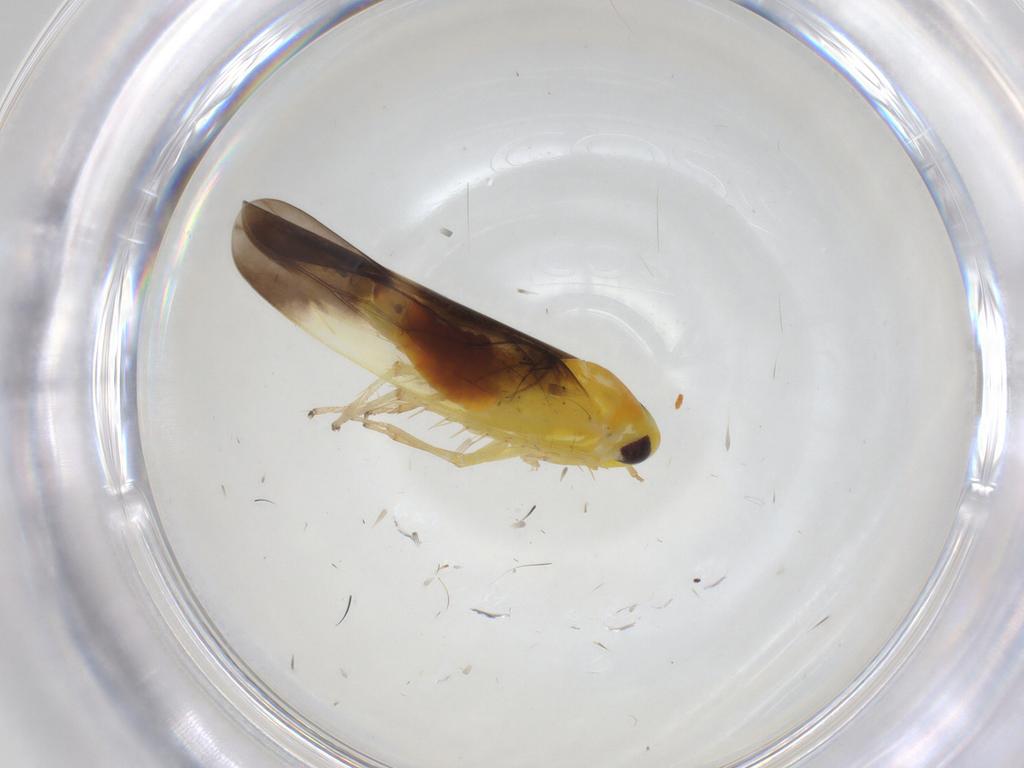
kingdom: Animalia
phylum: Arthropoda
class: Insecta
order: Hemiptera
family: Cicadellidae
